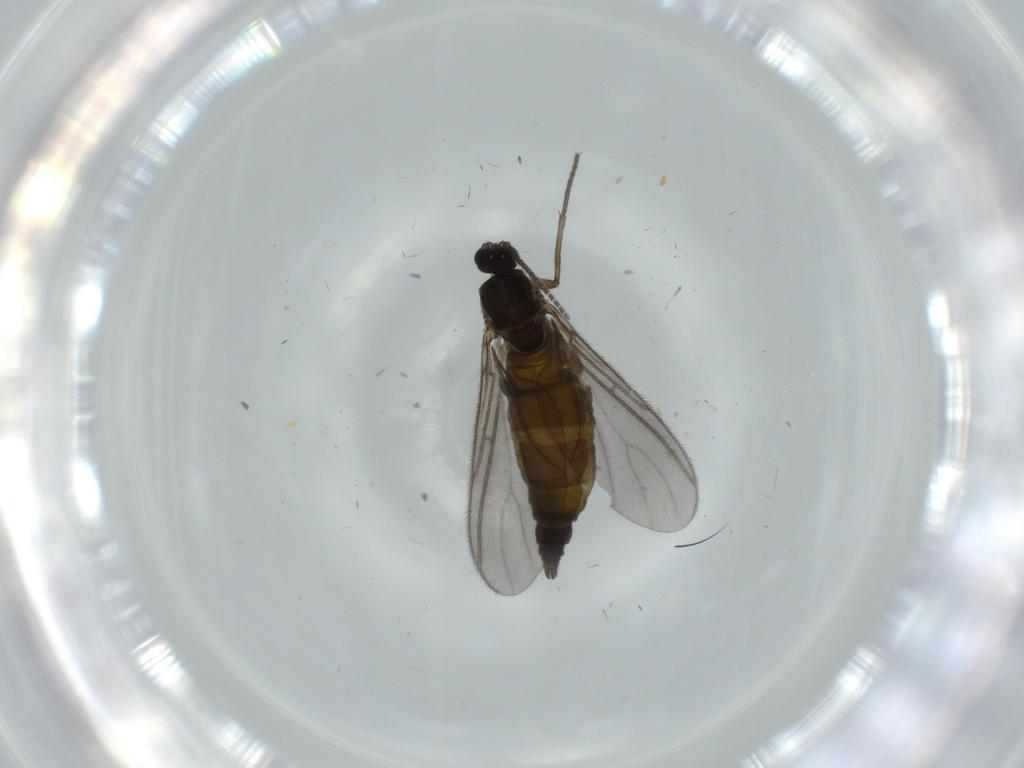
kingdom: Animalia
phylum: Arthropoda
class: Insecta
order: Diptera
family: Sciaridae
